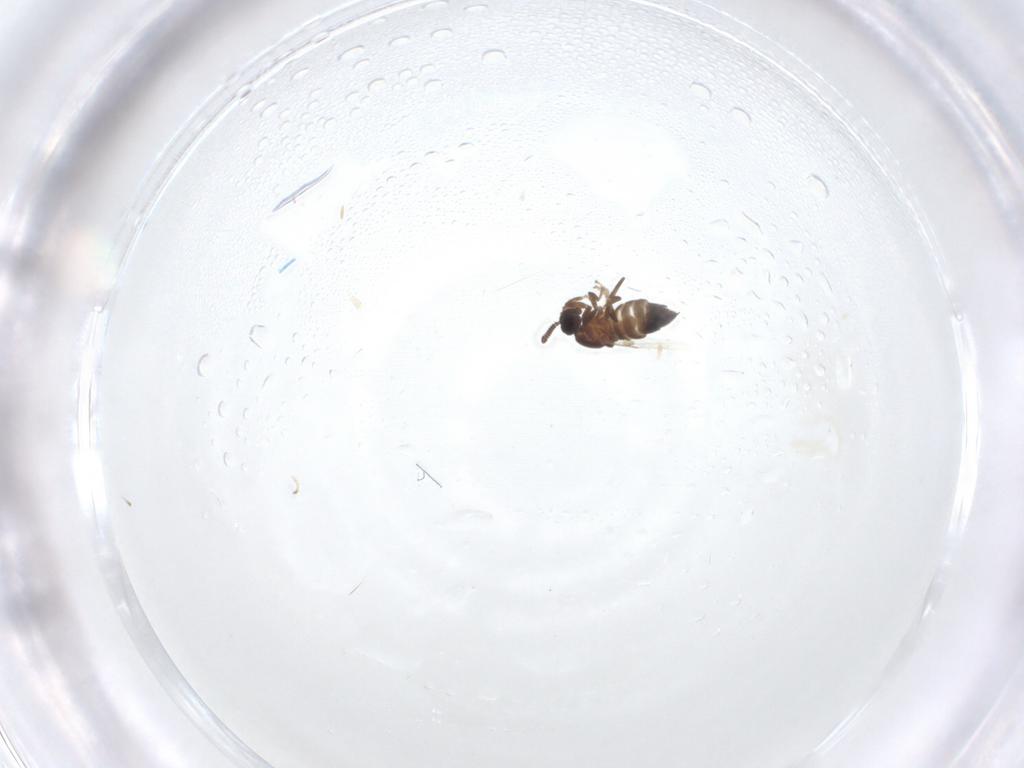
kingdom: Animalia
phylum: Arthropoda
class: Insecta
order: Diptera
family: Scatopsidae
